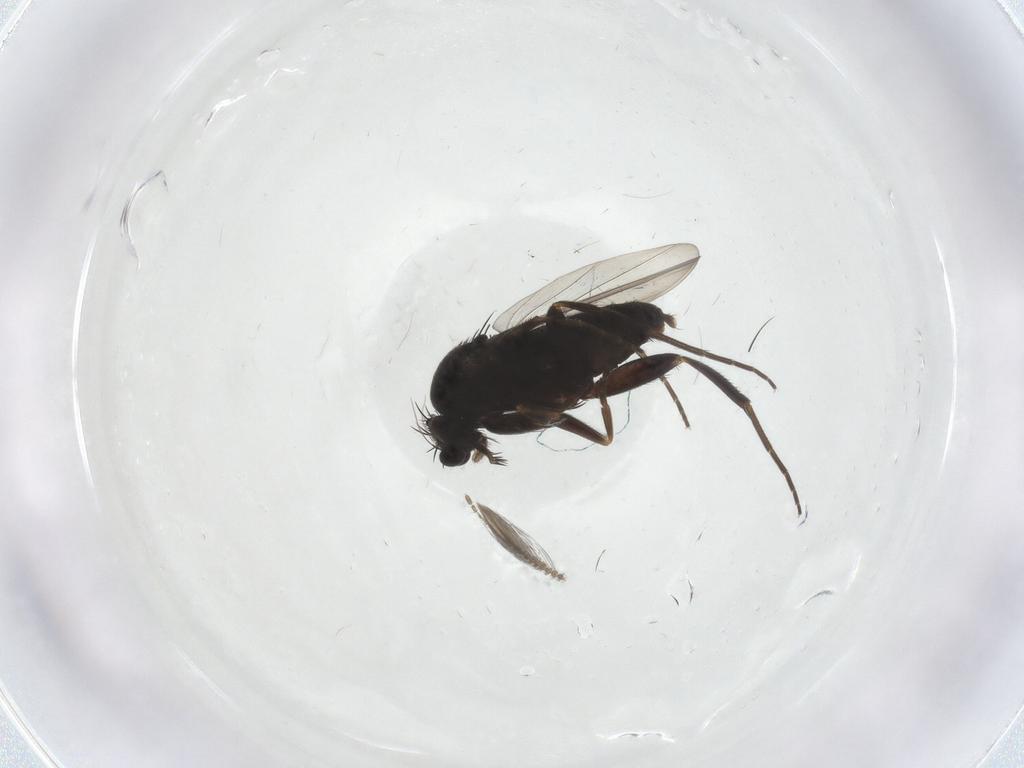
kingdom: Animalia
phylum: Arthropoda
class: Insecta
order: Diptera
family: Phoridae
